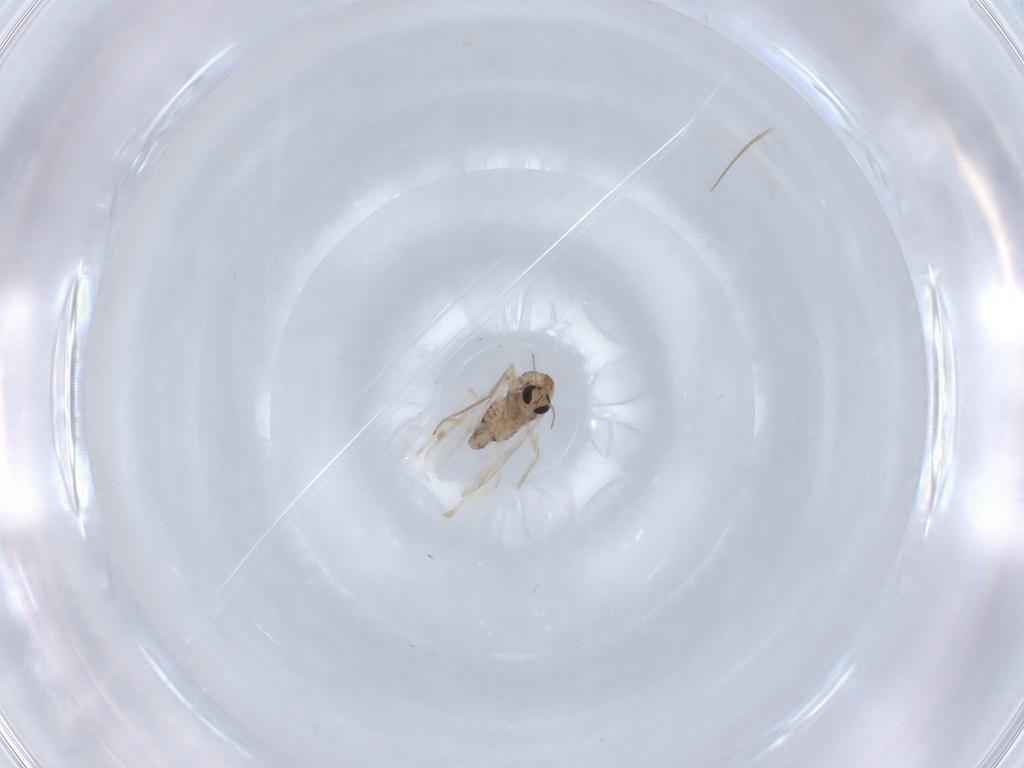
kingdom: Animalia
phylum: Arthropoda
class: Insecta
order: Diptera
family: Chironomidae
